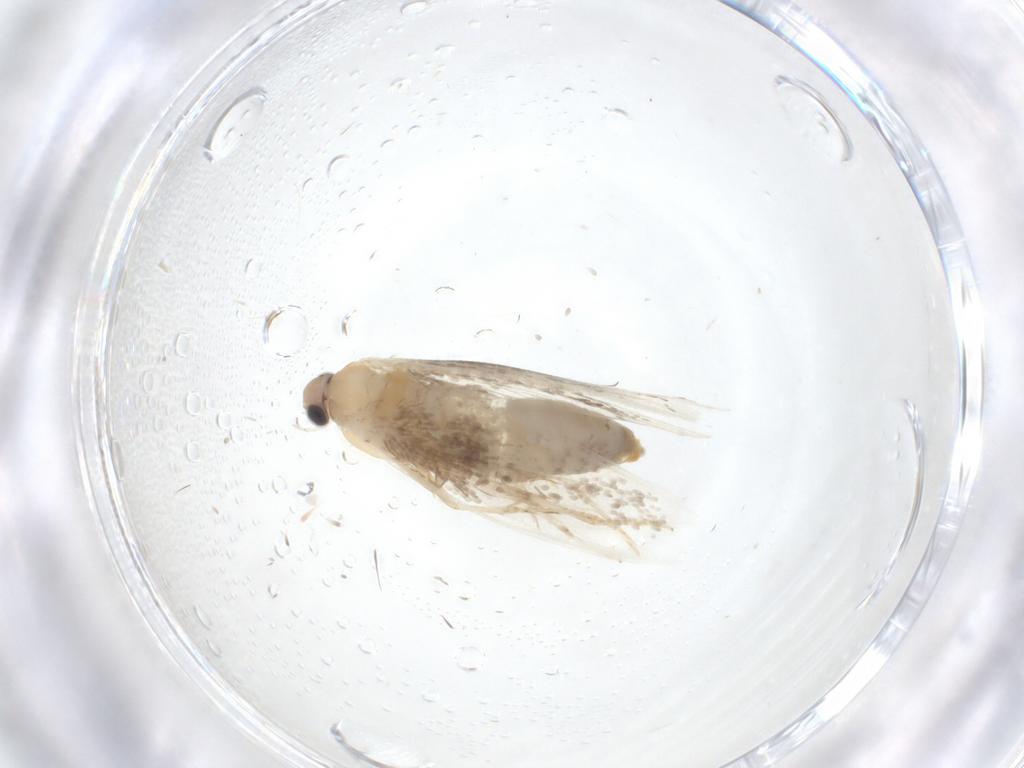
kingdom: Animalia
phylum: Arthropoda
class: Insecta
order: Lepidoptera
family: Tineidae
